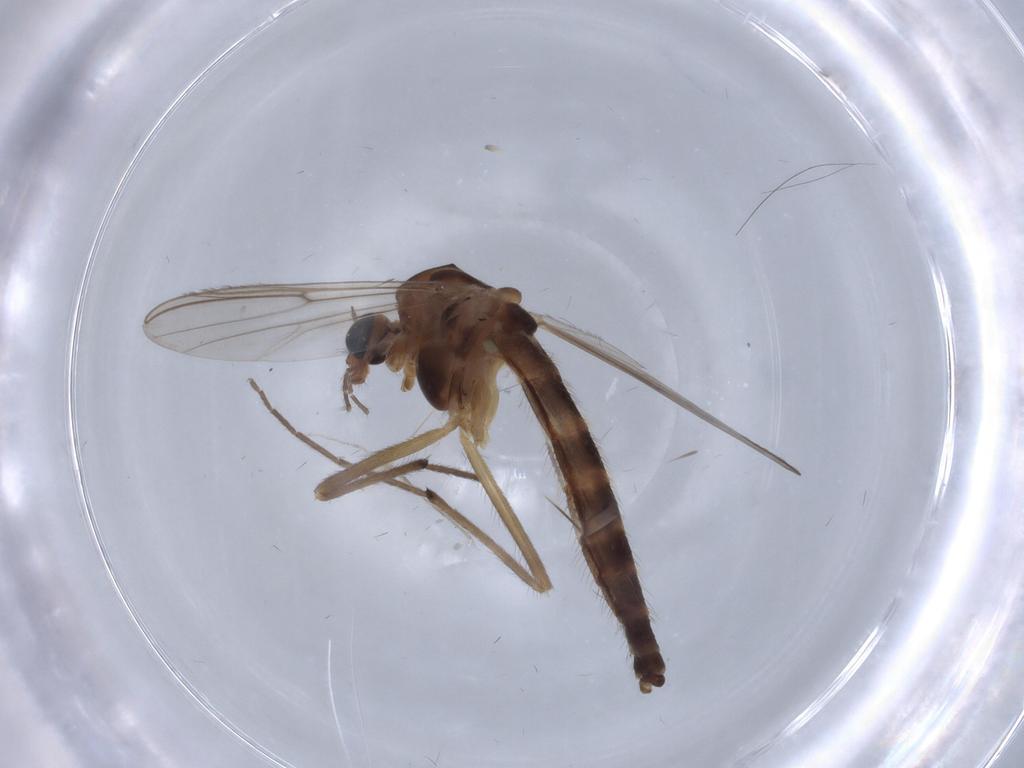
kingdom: Animalia
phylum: Arthropoda
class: Insecta
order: Diptera
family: Chironomidae
